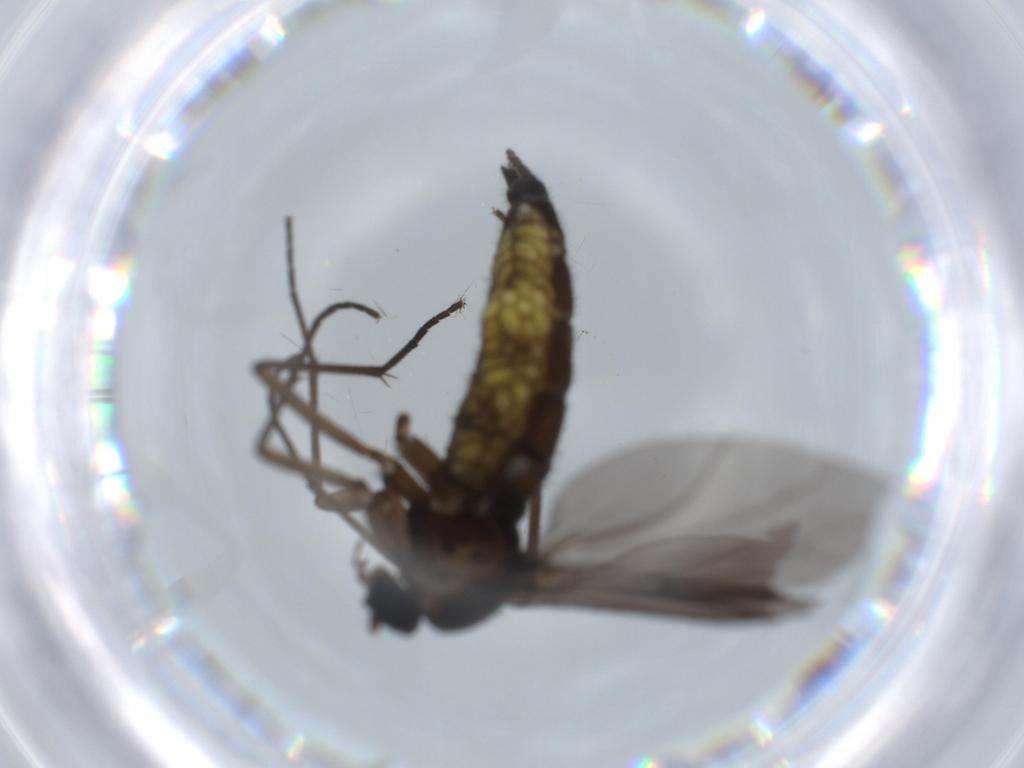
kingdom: Animalia
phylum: Arthropoda
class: Insecta
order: Diptera
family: Sciaridae
